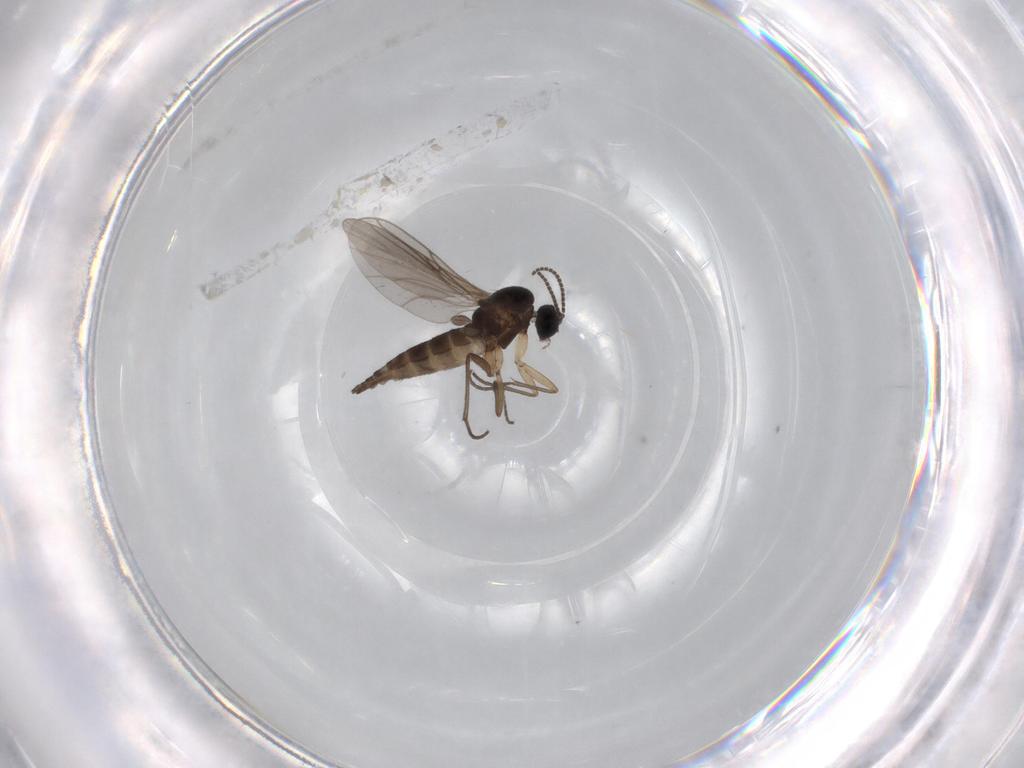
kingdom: Animalia
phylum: Arthropoda
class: Insecta
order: Diptera
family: Sciaridae
